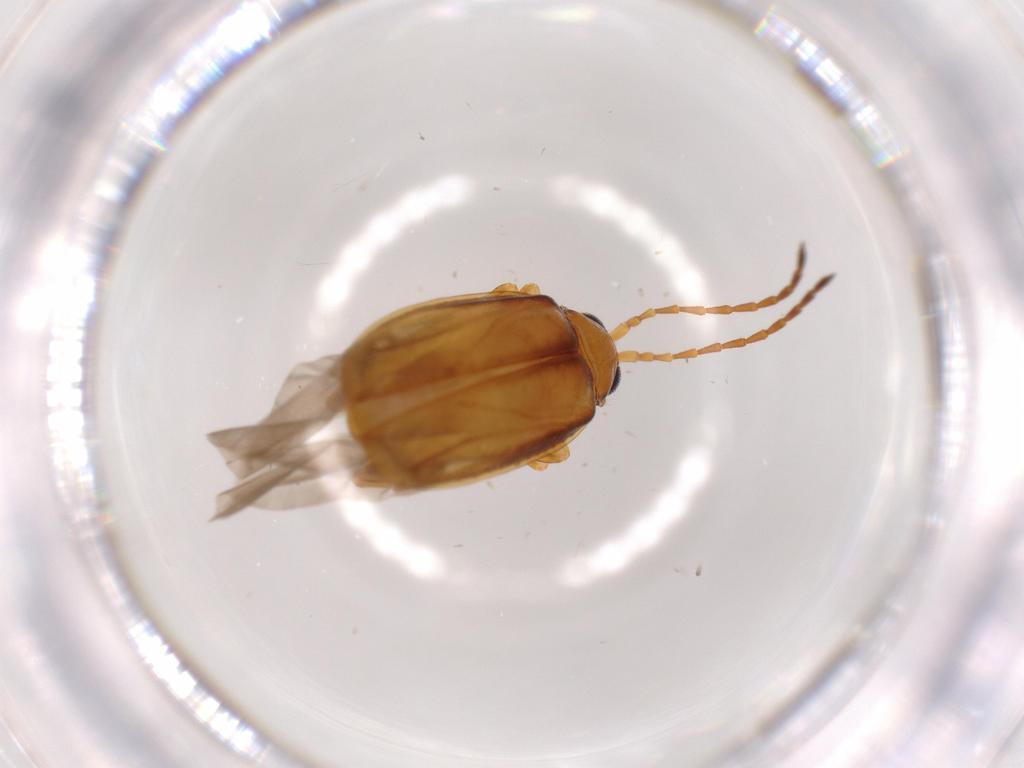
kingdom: Animalia
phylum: Arthropoda
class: Insecta
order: Coleoptera
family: Chrysomelidae
